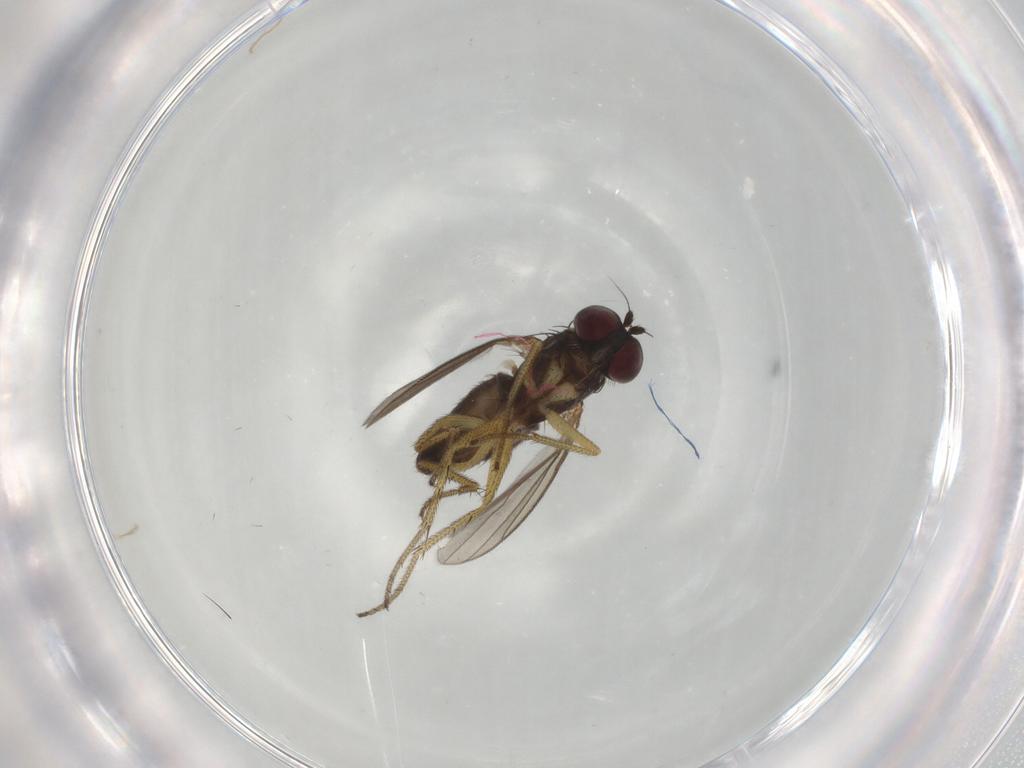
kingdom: Animalia
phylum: Arthropoda
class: Insecta
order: Diptera
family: Dolichopodidae
